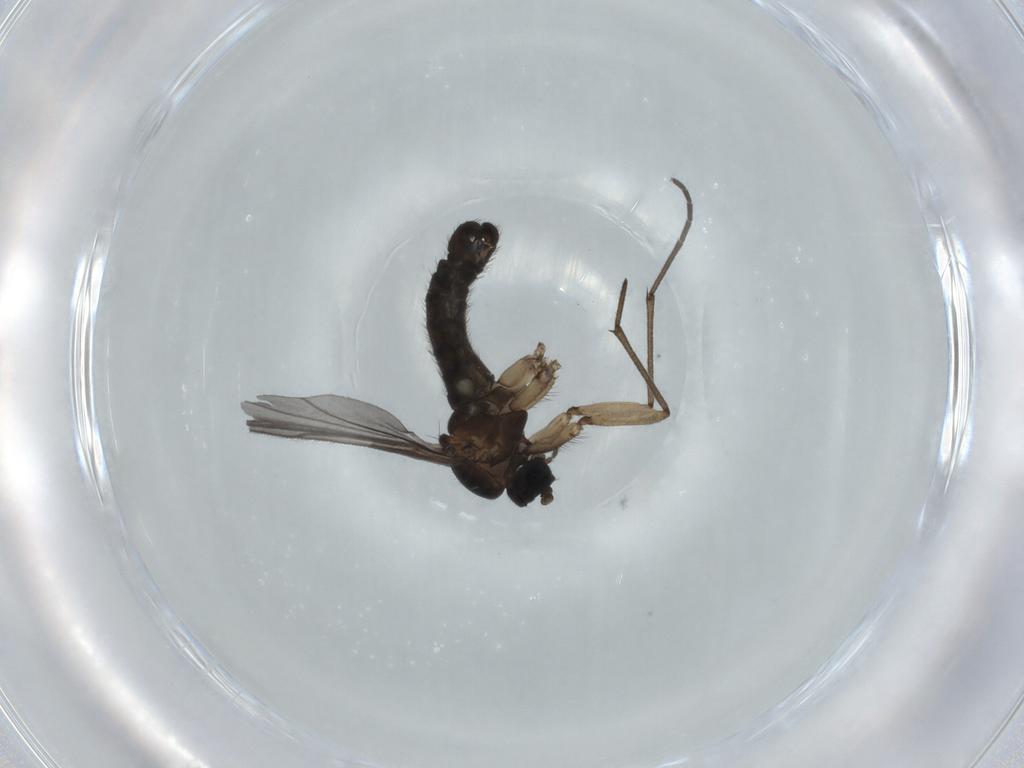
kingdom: Animalia
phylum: Arthropoda
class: Insecta
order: Diptera
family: Sciaridae
